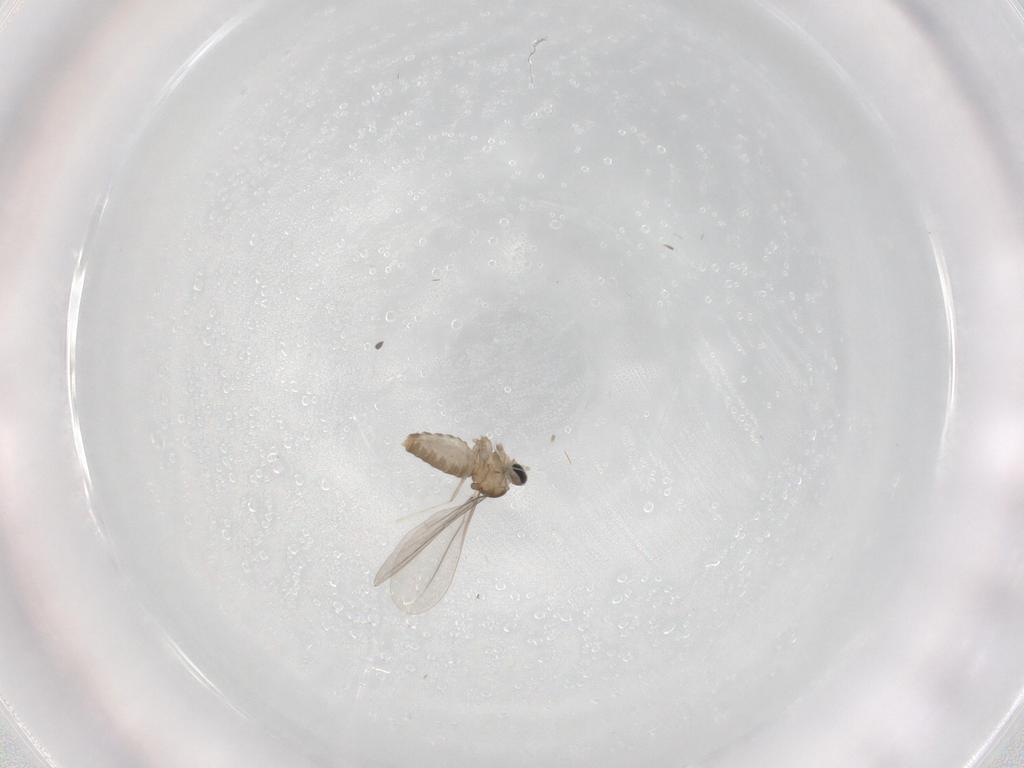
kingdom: Animalia
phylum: Arthropoda
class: Insecta
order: Diptera
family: Cecidomyiidae
